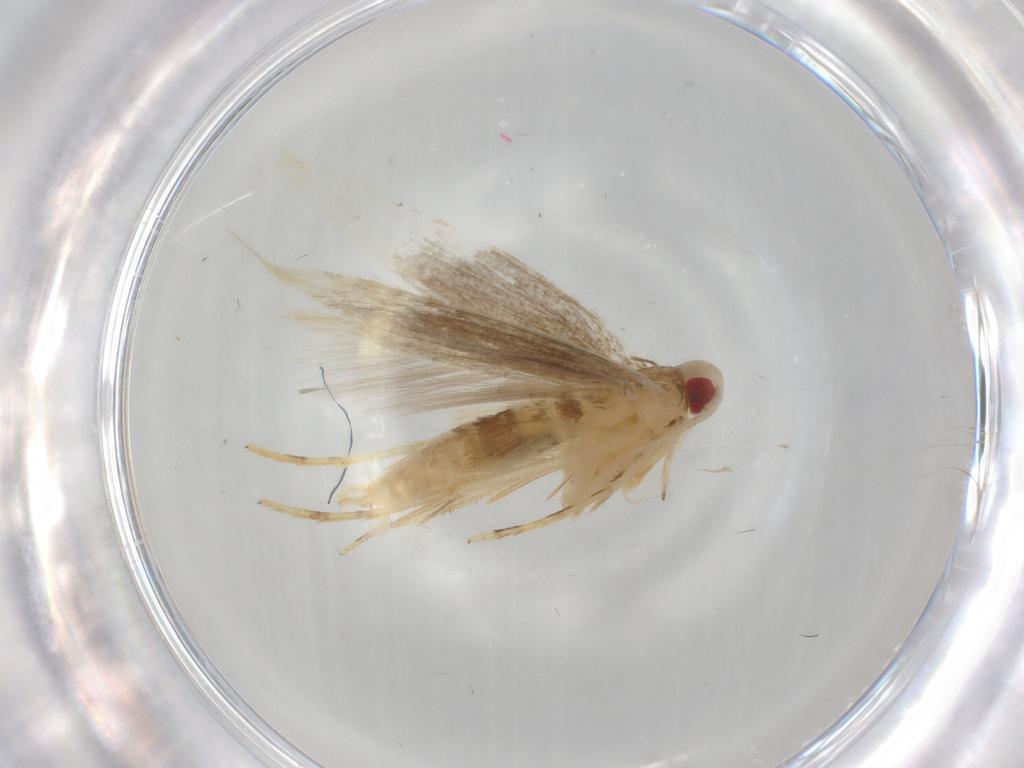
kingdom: Animalia
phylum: Arthropoda
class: Insecta
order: Lepidoptera
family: Cosmopterigidae
